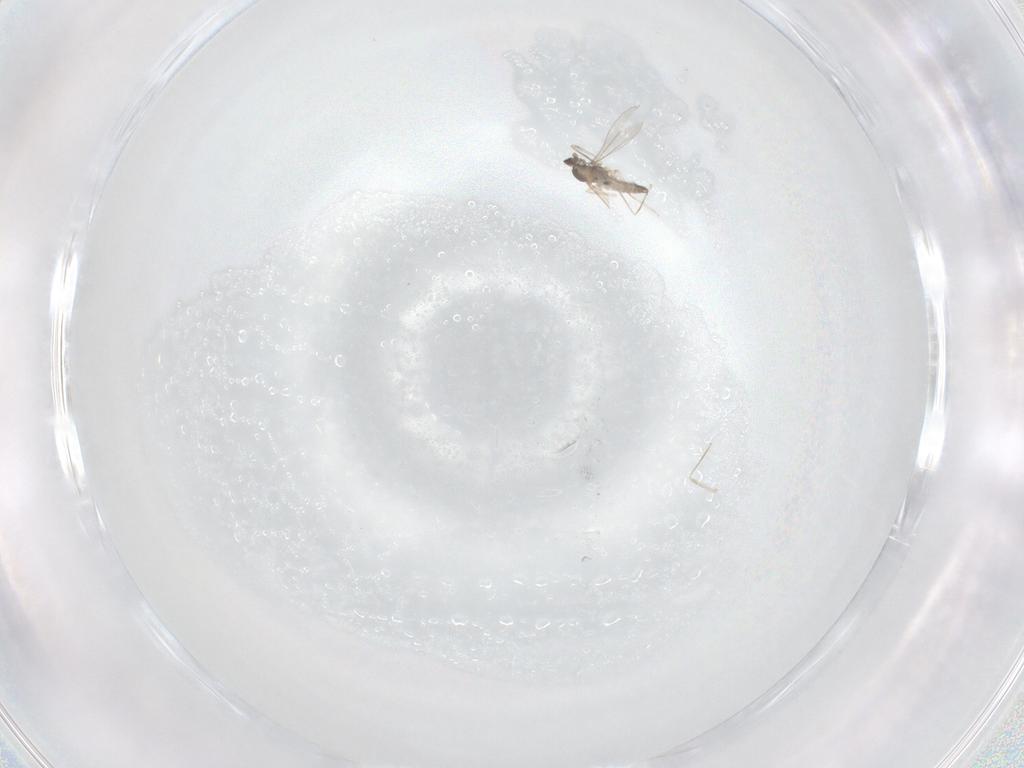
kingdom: Animalia
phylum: Arthropoda
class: Insecta
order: Diptera
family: Cecidomyiidae
